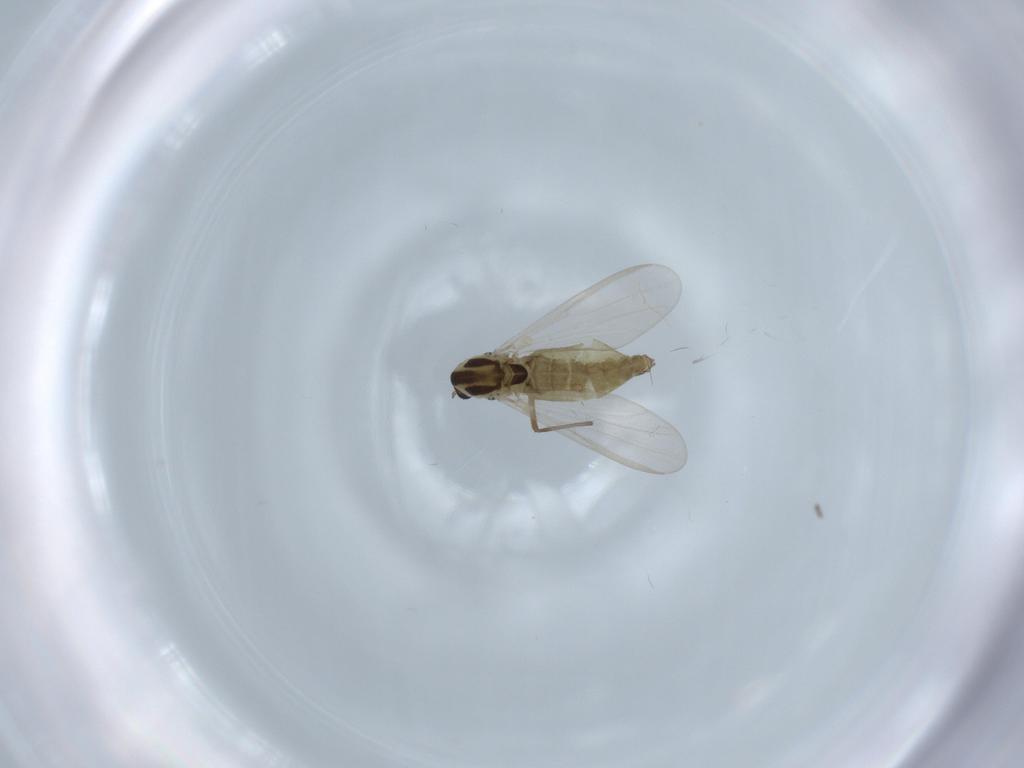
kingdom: Animalia
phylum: Arthropoda
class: Insecta
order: Diptera
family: Chironomidae
